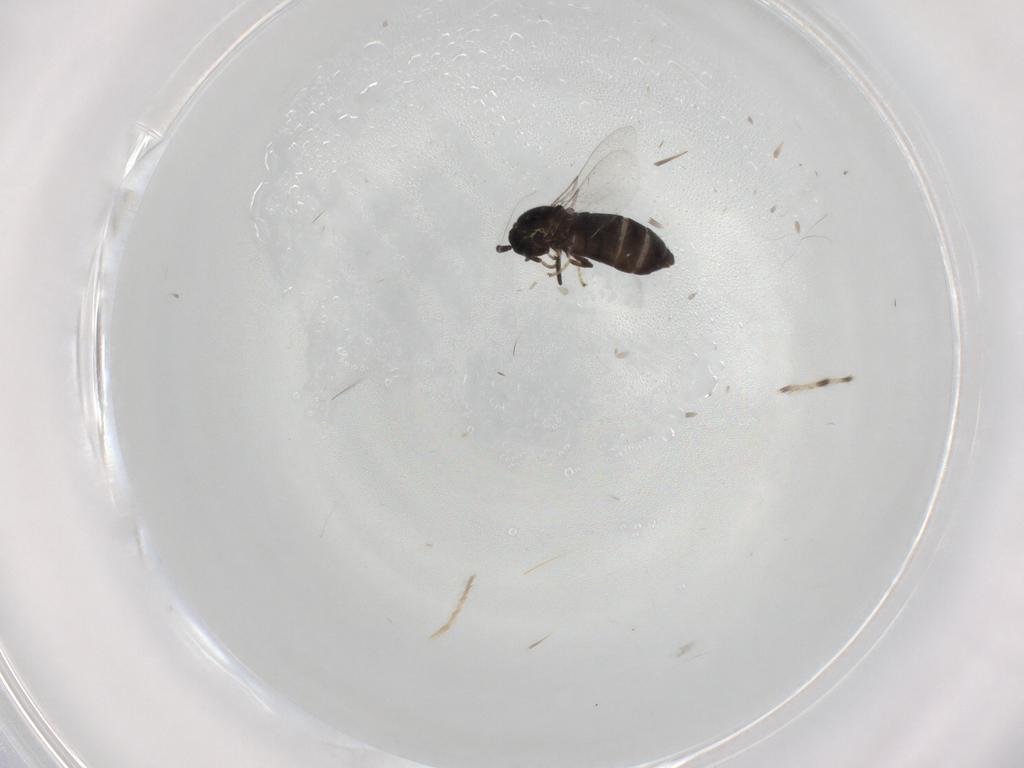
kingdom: Animalia
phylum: Arthropoda
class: Insecta
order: Diptera
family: Scatopsidae
